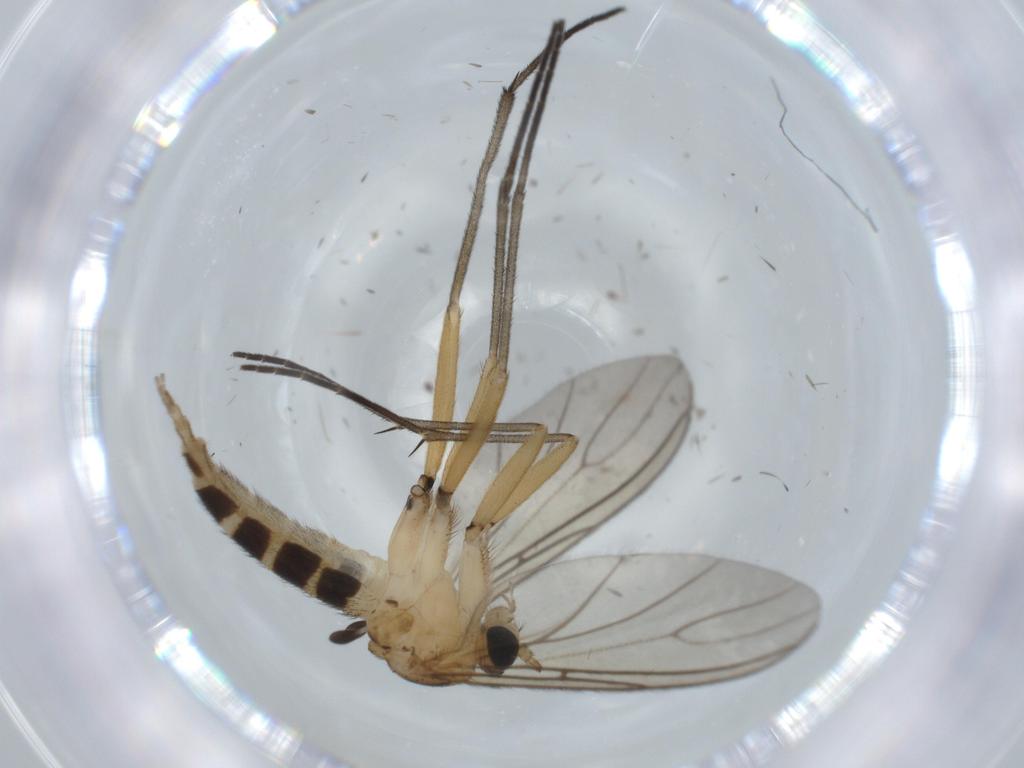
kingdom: Animalia
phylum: Arthropoda
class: Insecta
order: Diptera
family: Sciaridae
